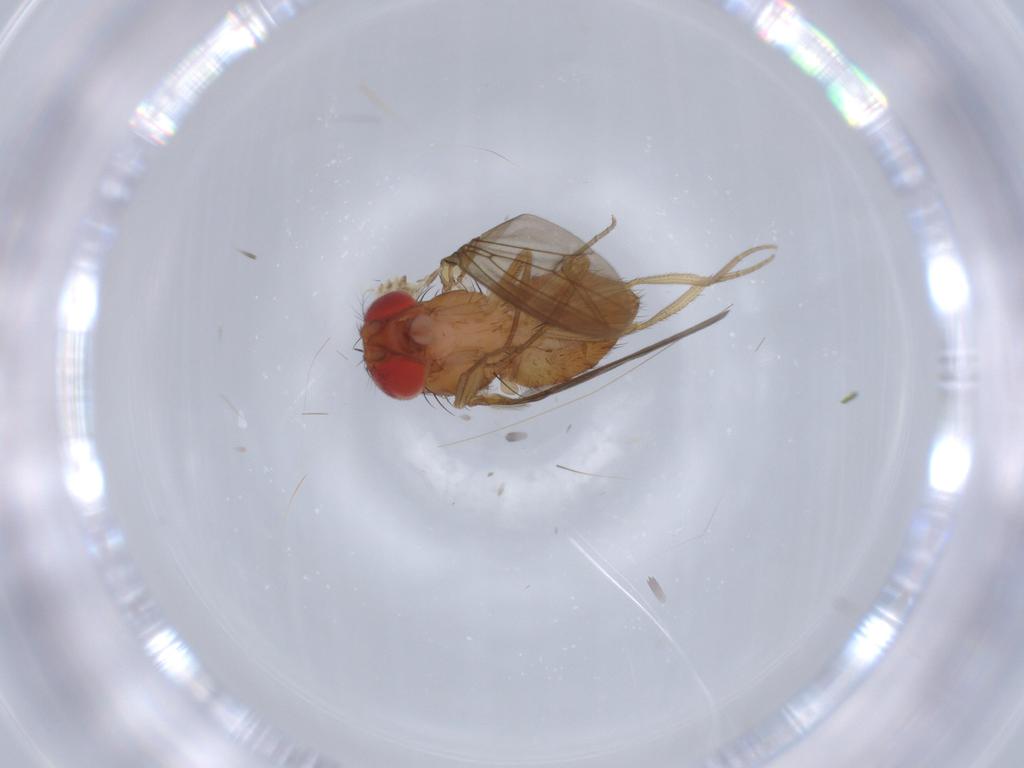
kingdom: Animalia
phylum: Arthropoda
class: Insecta
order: Diptera
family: Drosophilidae
